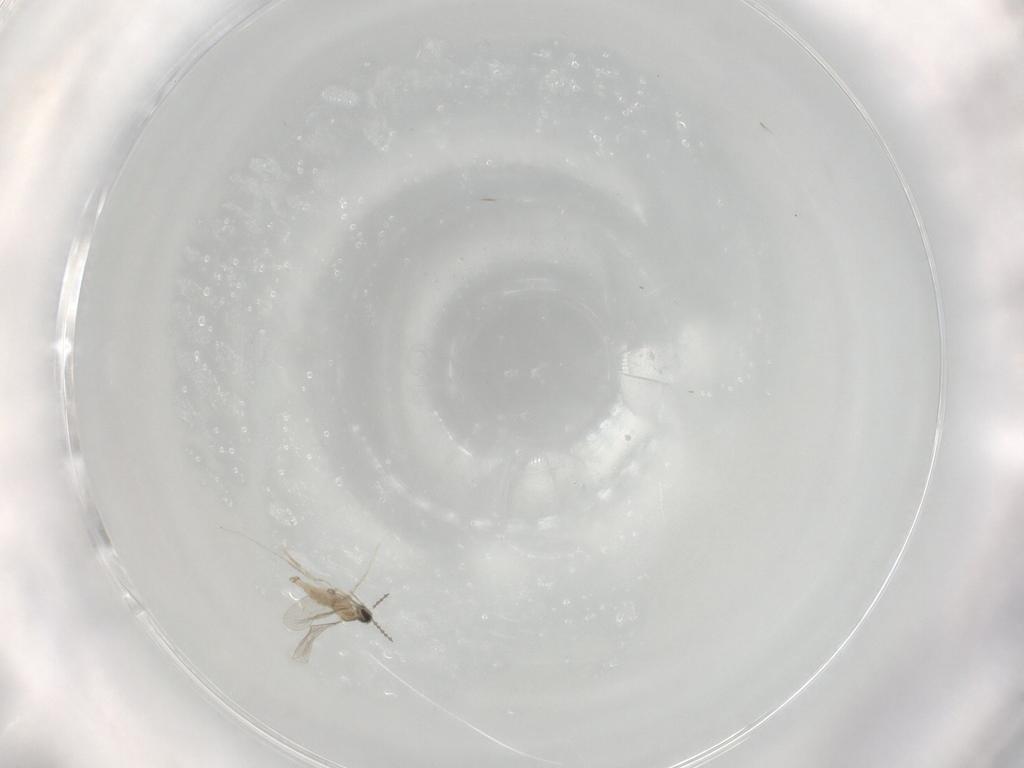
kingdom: Animalia
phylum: Arthropoda
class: Insecta
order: Diptera
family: Cecidomyiidae
